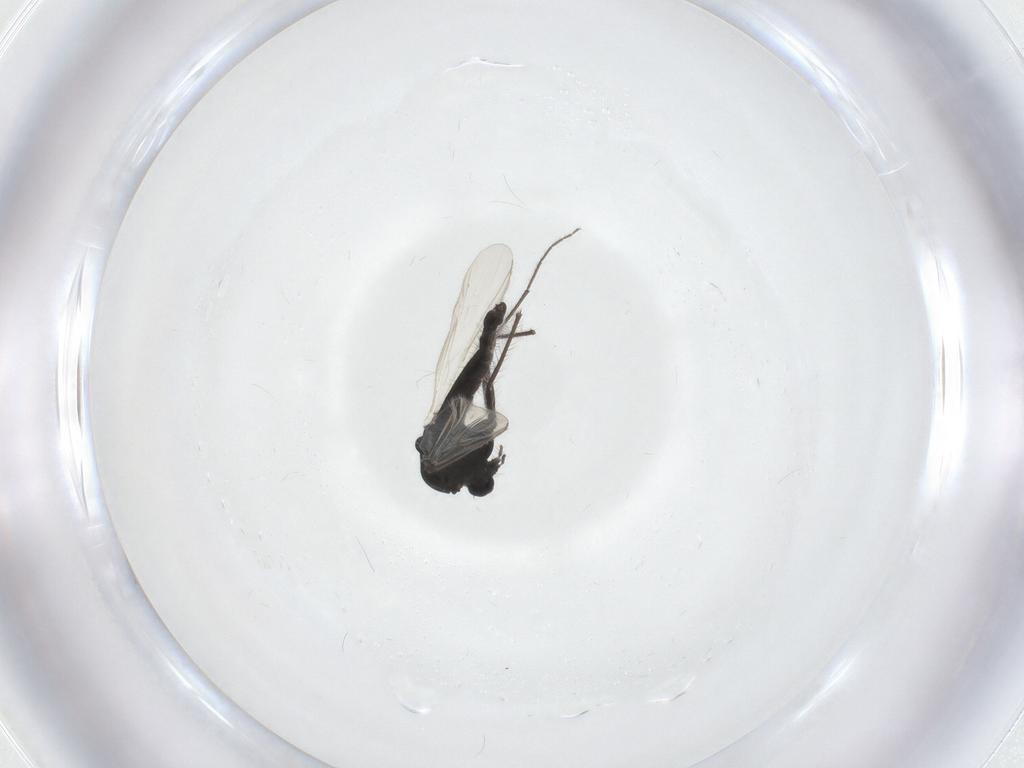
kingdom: Animalia
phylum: Arthropoda
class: Insecta
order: Diptera
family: Chironomidae
